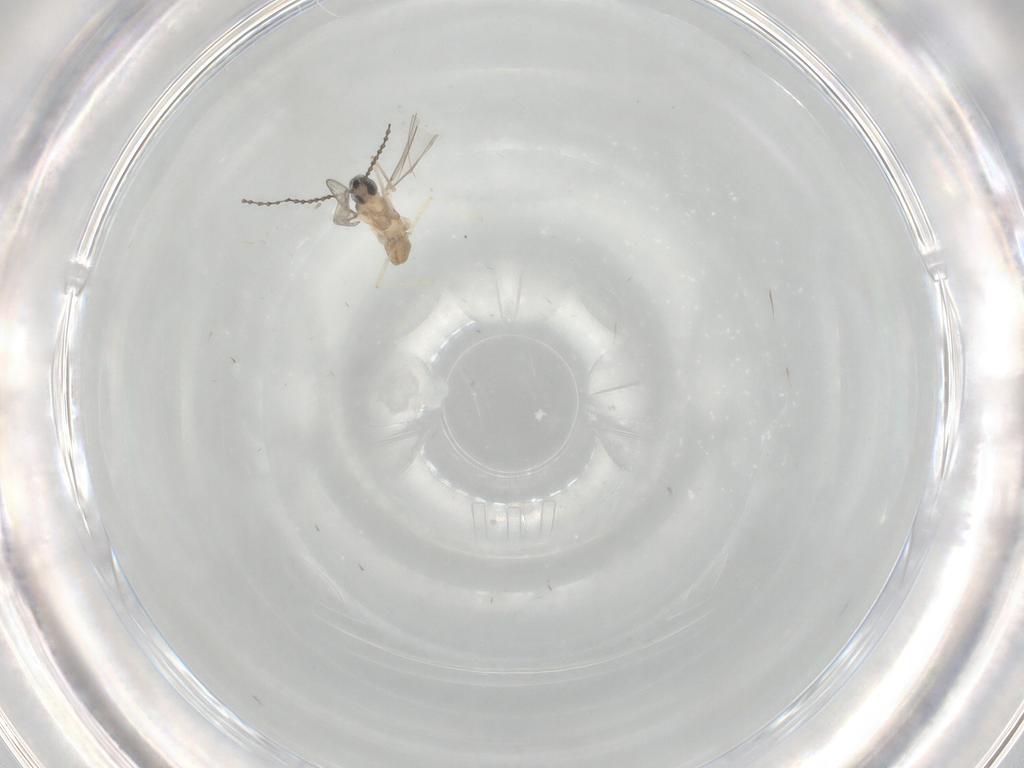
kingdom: Animalia
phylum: Arthropoda
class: Insecta
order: Diptera
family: Cecidomyiidae
